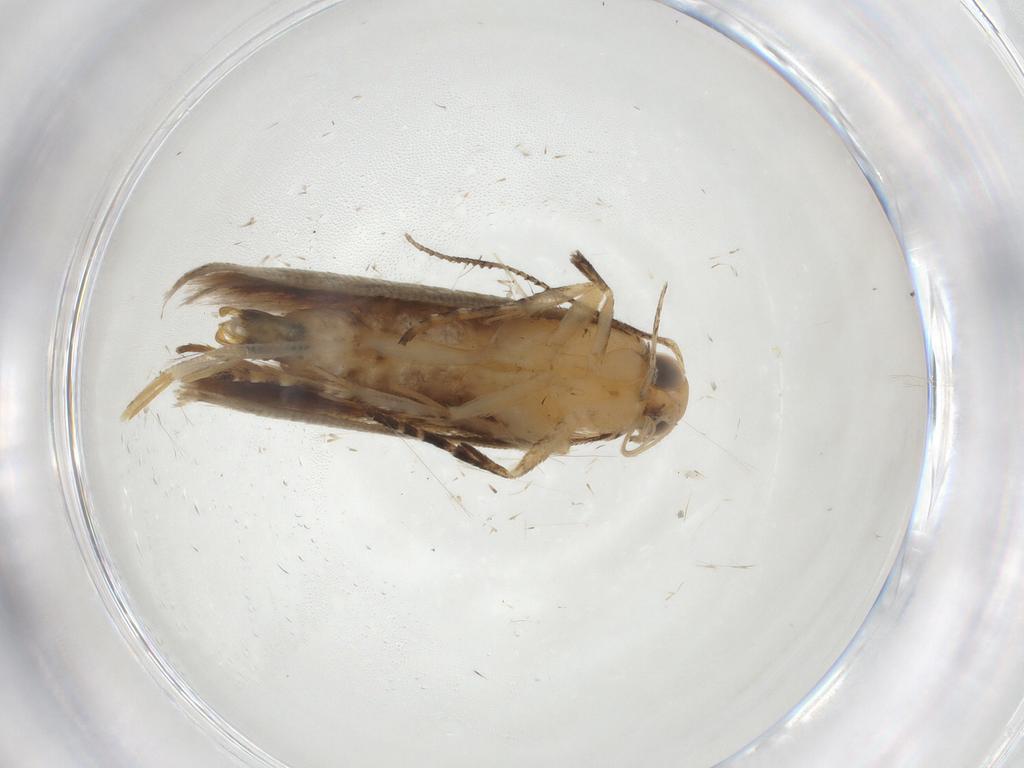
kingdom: Animalia
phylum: Arthropoda
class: Insecta
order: Lepidoptera
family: Gelechiidae
